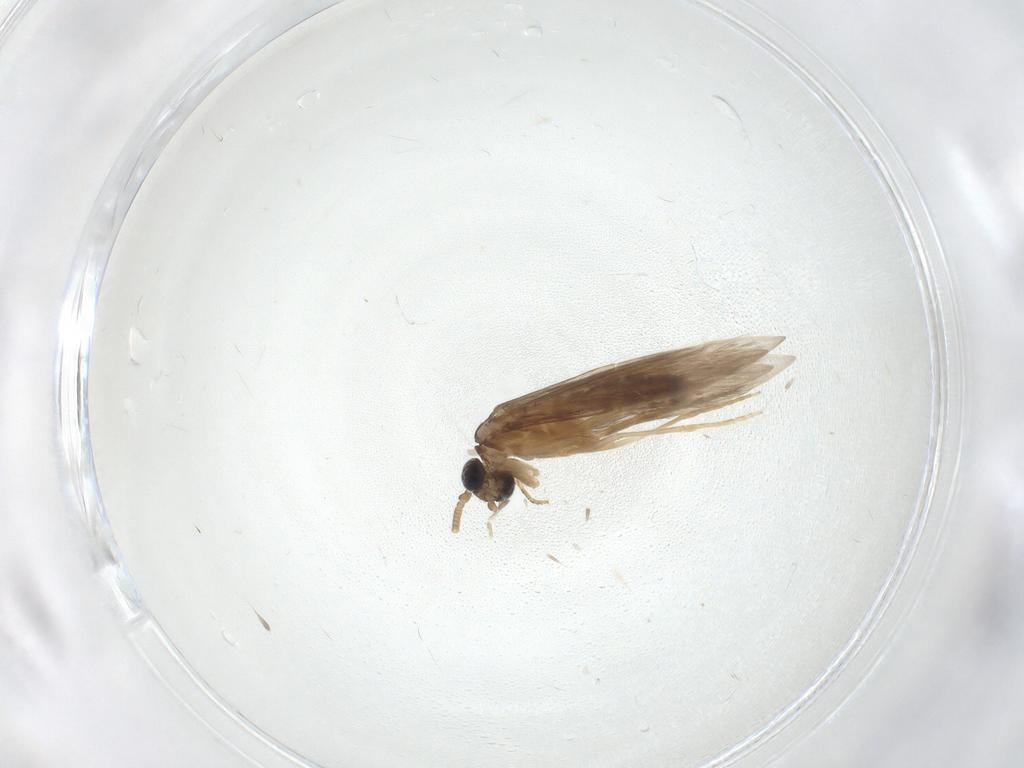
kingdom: Animalia
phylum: Arthropoda
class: Insecta
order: Trichoptera
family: Hydroptilidae
